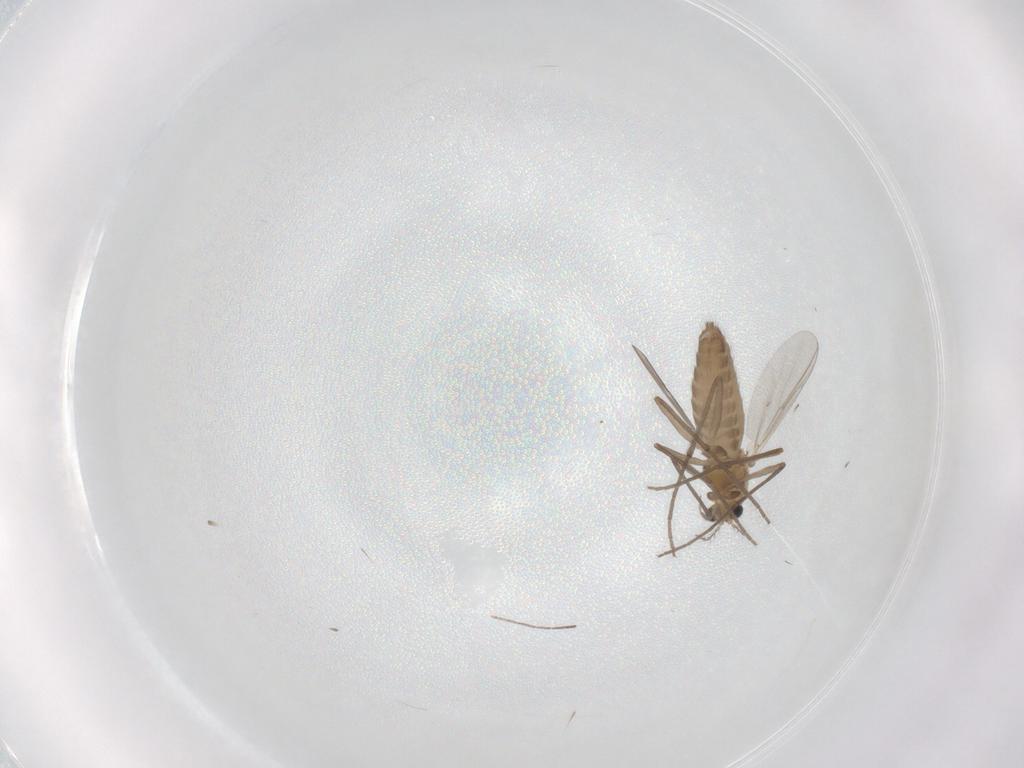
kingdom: Animalia
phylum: Arthropoda
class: Insecta
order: Diptera
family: Chironomidae
